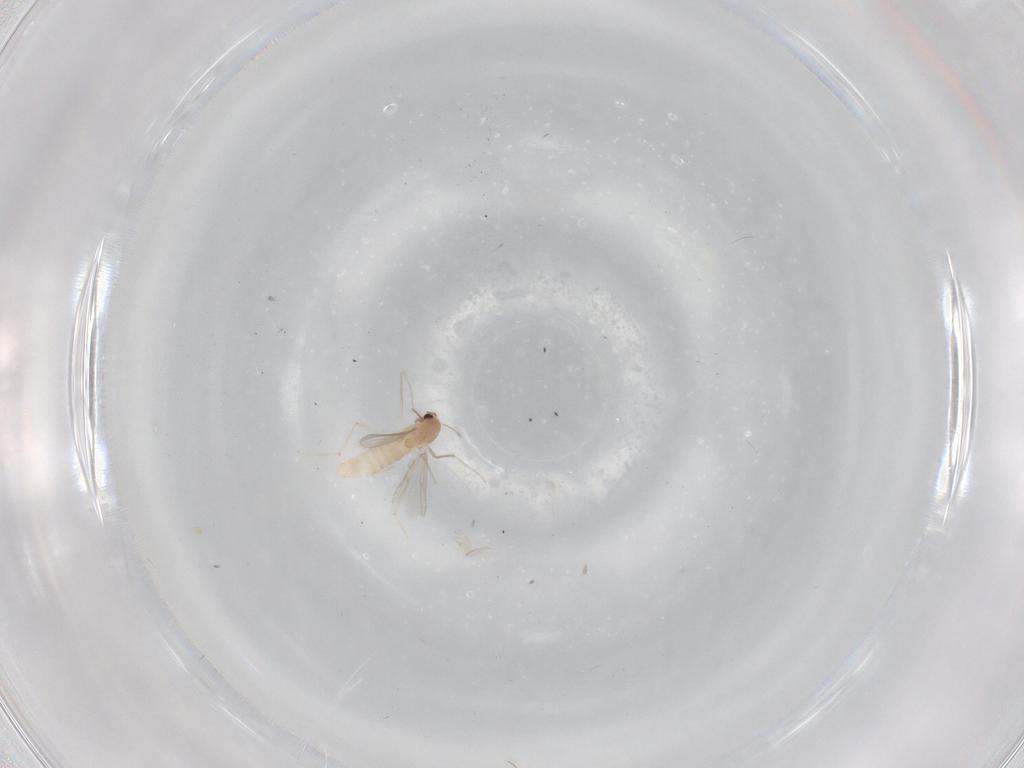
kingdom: Animalia
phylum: Arthropoda
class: Insecta
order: Diptera
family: Chironomidae
